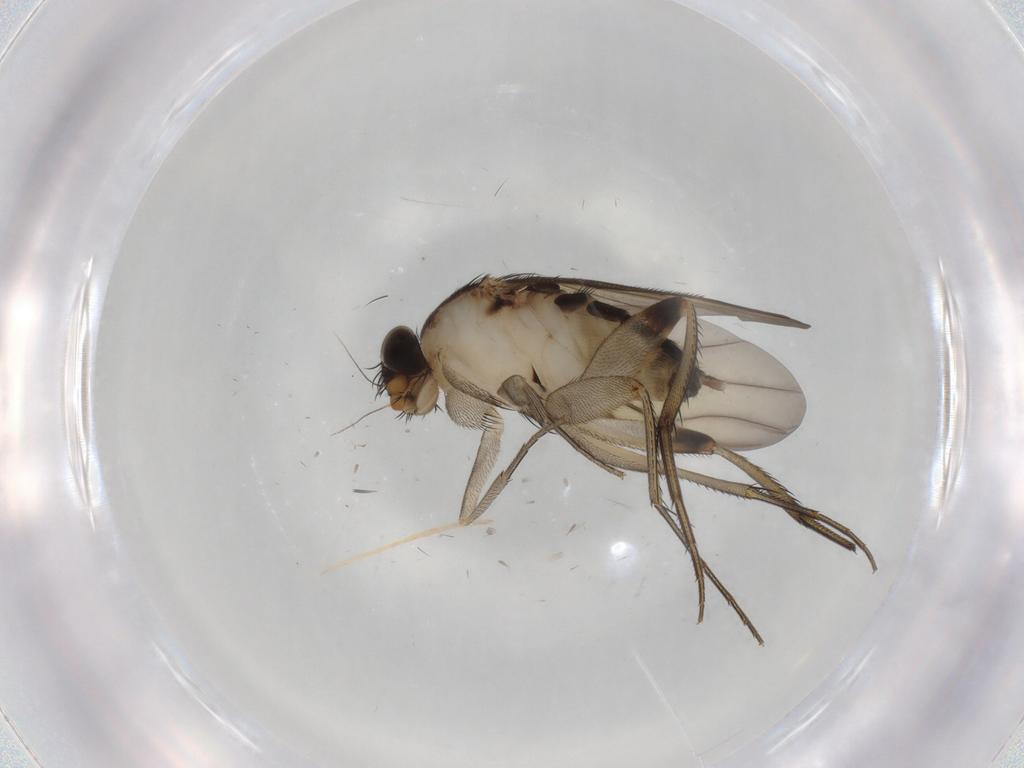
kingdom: Animalia
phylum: Arthropoda
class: Insecta
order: Diptera
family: Phoridae
